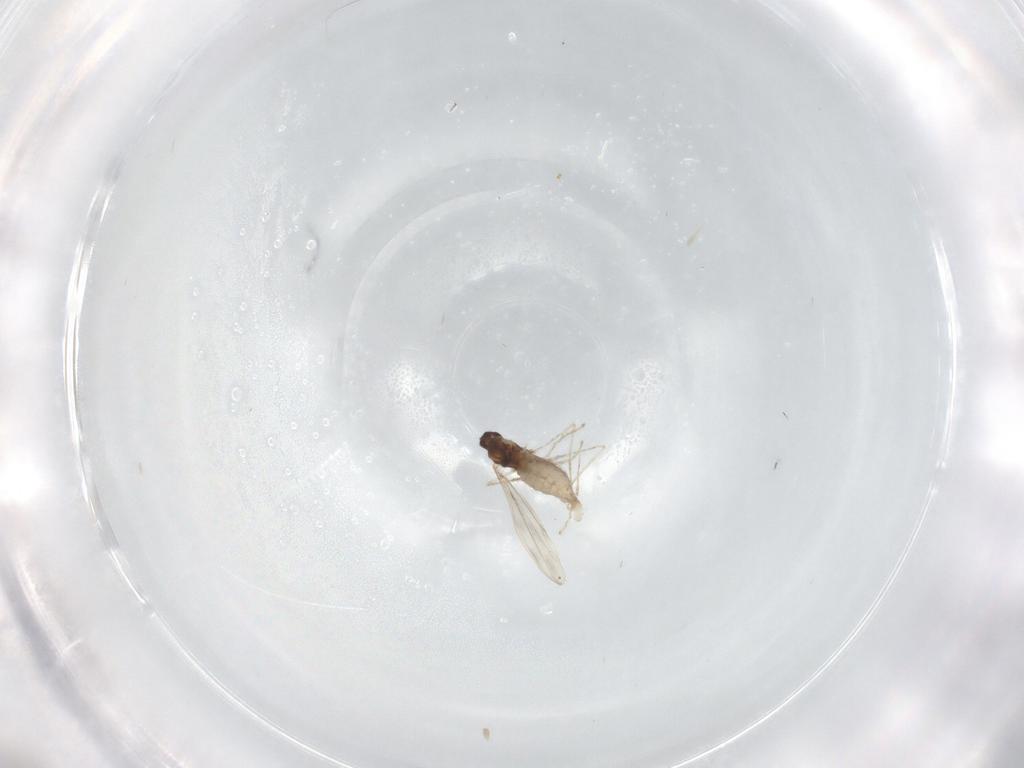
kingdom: Animalia
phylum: Arthropoda
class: Insecta
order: Diptera
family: Cecidomyiidae
